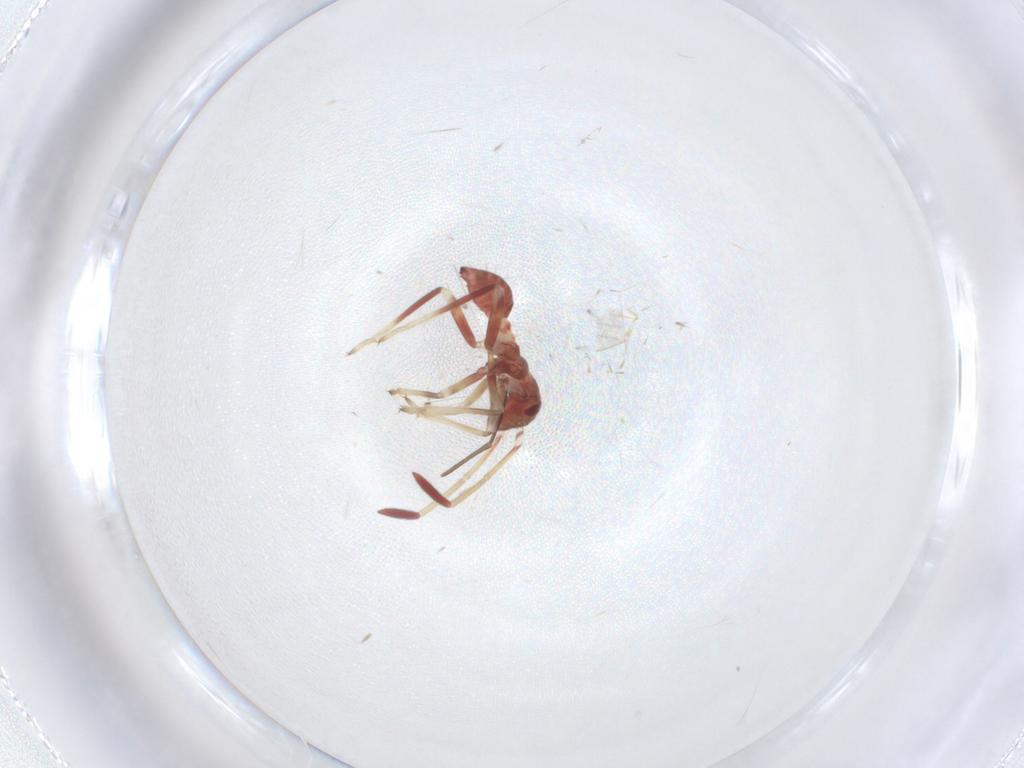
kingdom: Animalia
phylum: Arthropoda
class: Insecta
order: Hemiptera
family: Miridae
